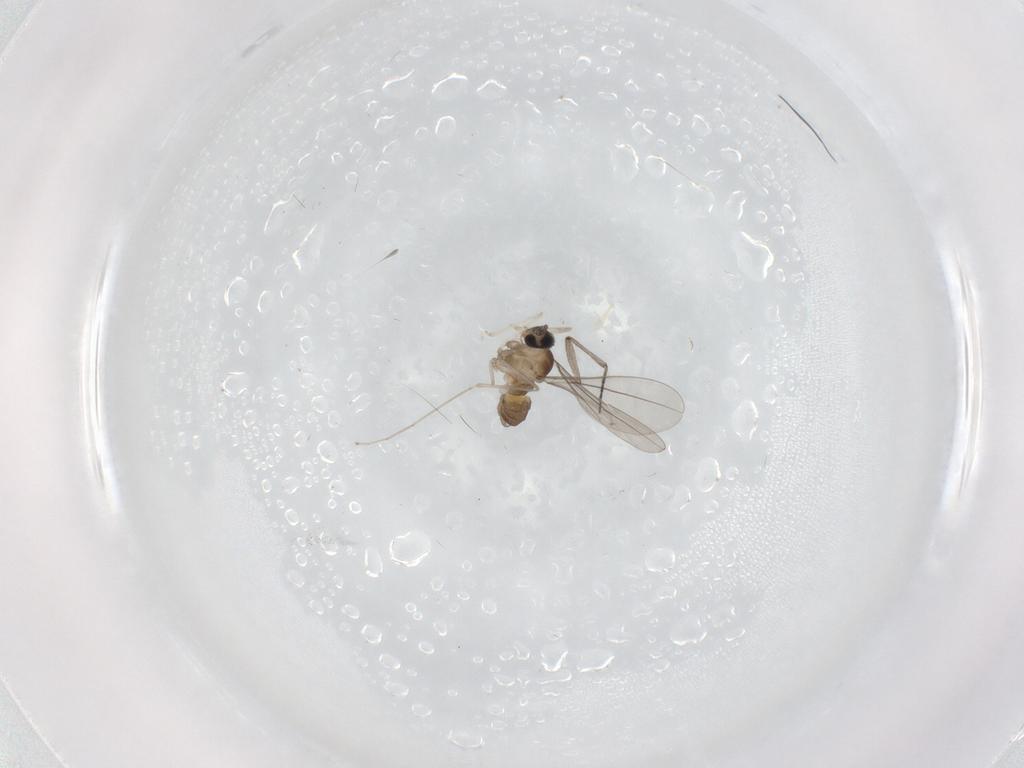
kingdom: Animalia
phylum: Arthropoda
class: Insecta
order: Diptera
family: Cecidomyiidae
